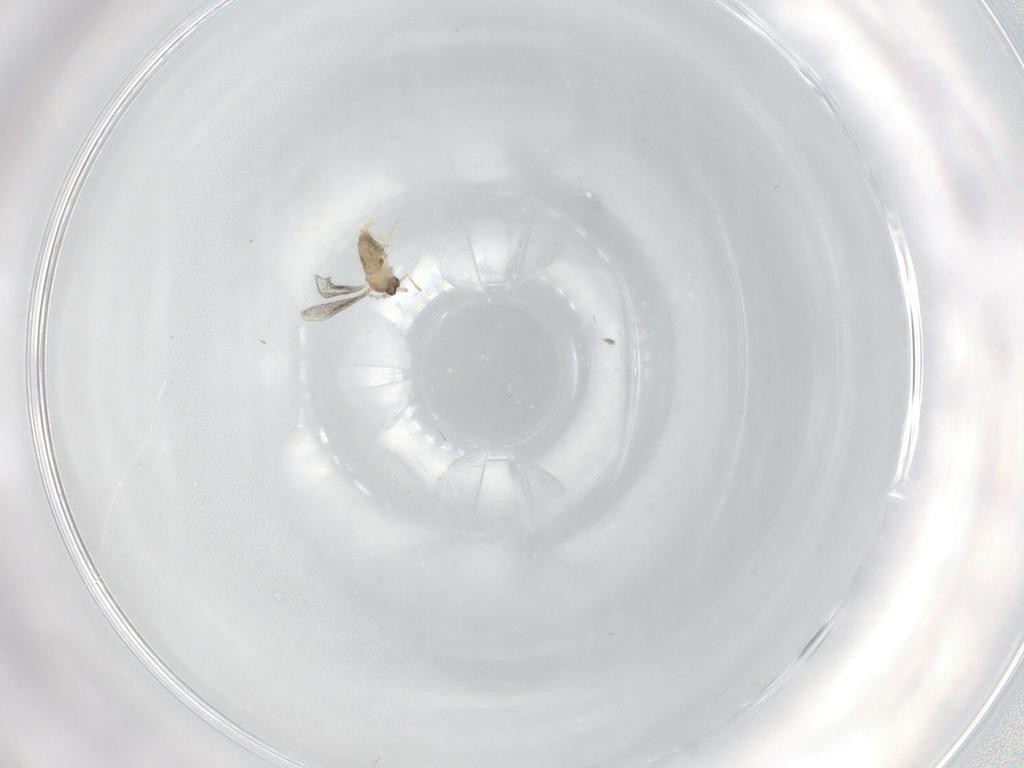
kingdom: Animalia
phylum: Arthropoda
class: Insecta
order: Diptera
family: Cecidomyiidae
